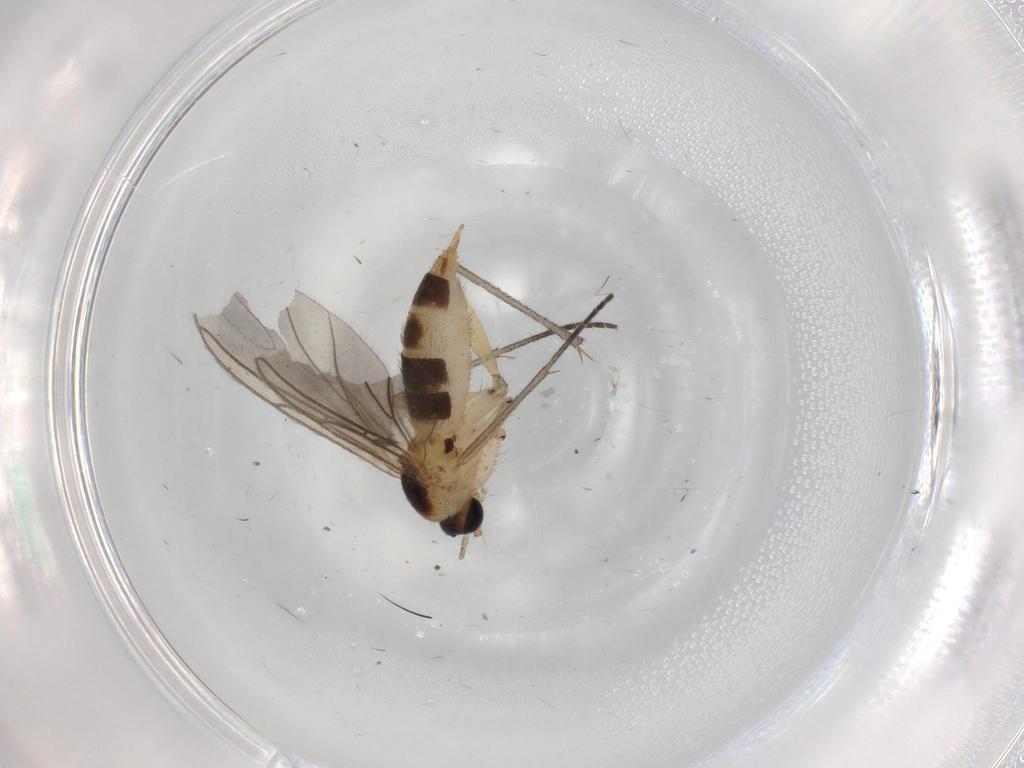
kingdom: Animalia
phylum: Arthropoda
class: Insecta
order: Diptera
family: Sciaridae
